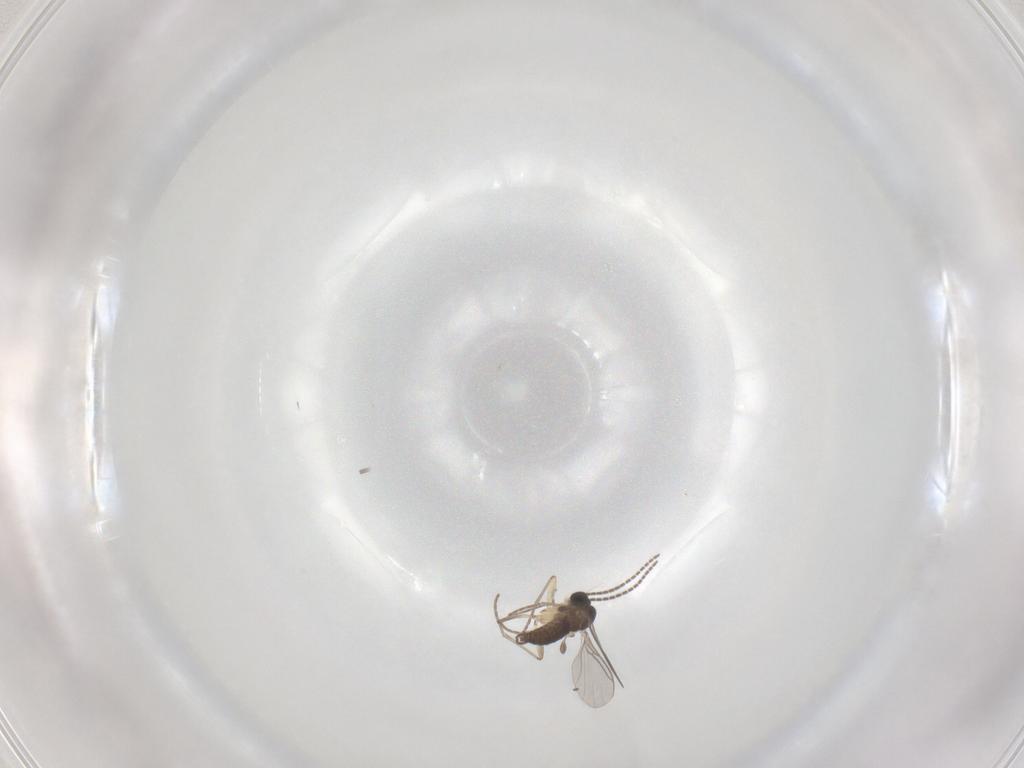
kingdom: Animalia
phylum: Arthropoda
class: Insecta
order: Diptera
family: Sciaridae
